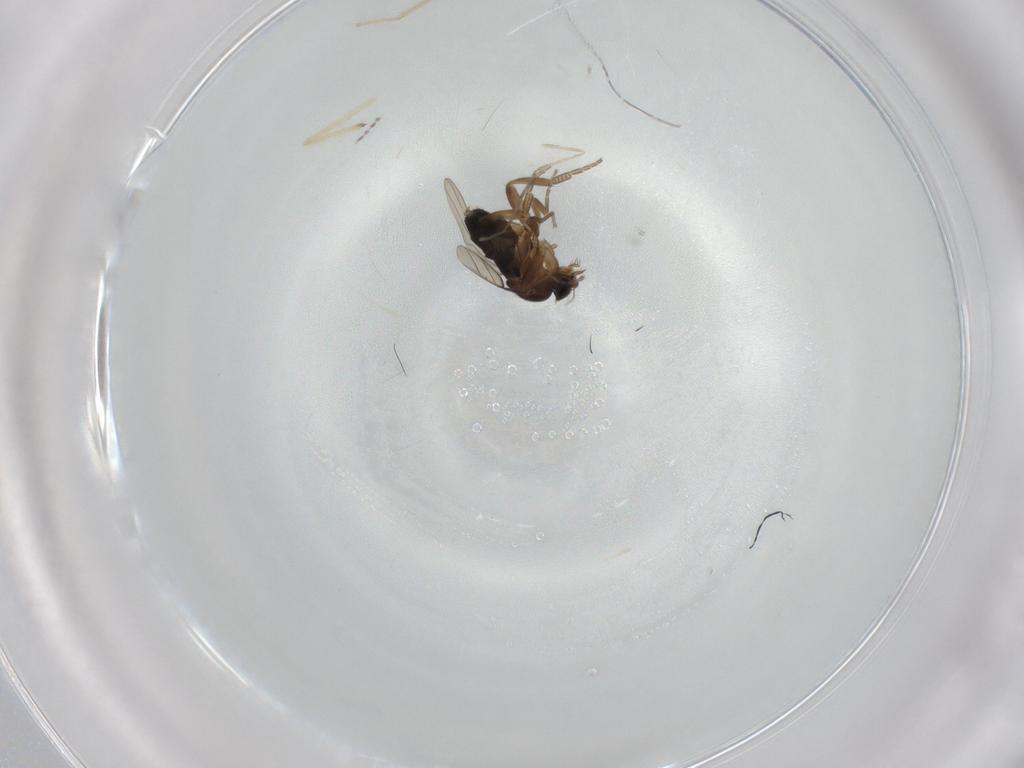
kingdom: Animalia
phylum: Arthropoda
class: Insecta
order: Diptera
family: Cecidomyiidae
